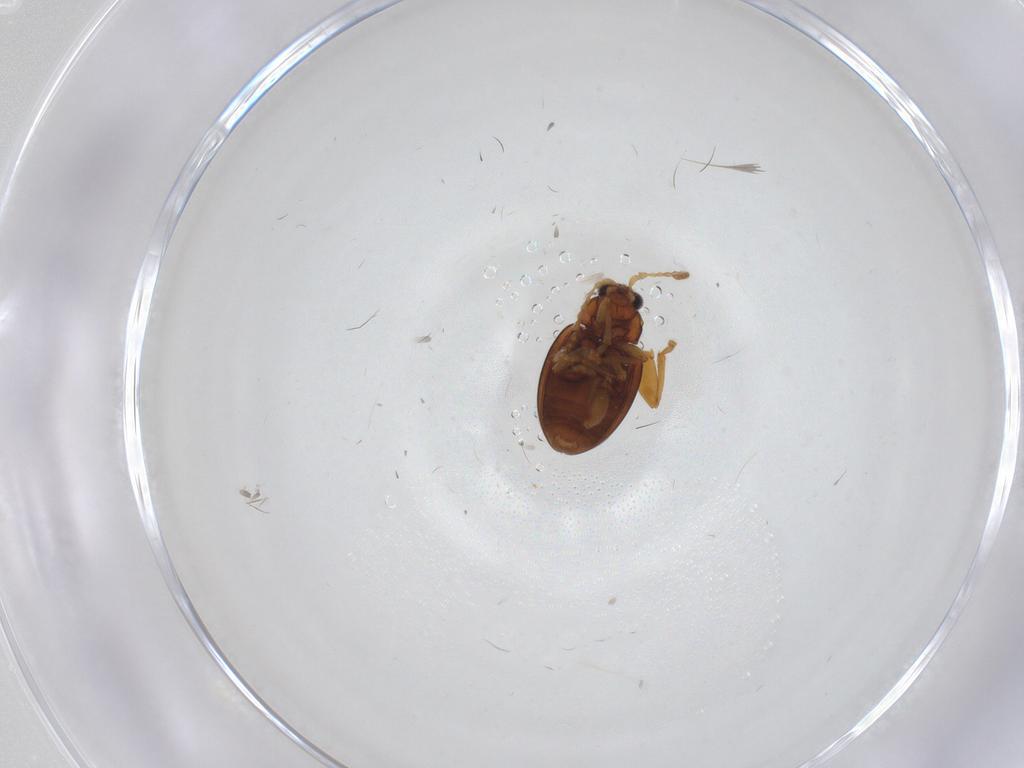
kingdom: Animalia
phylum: Arthropoda
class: Insecta
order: Coleoptera
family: Chrysomelidae
